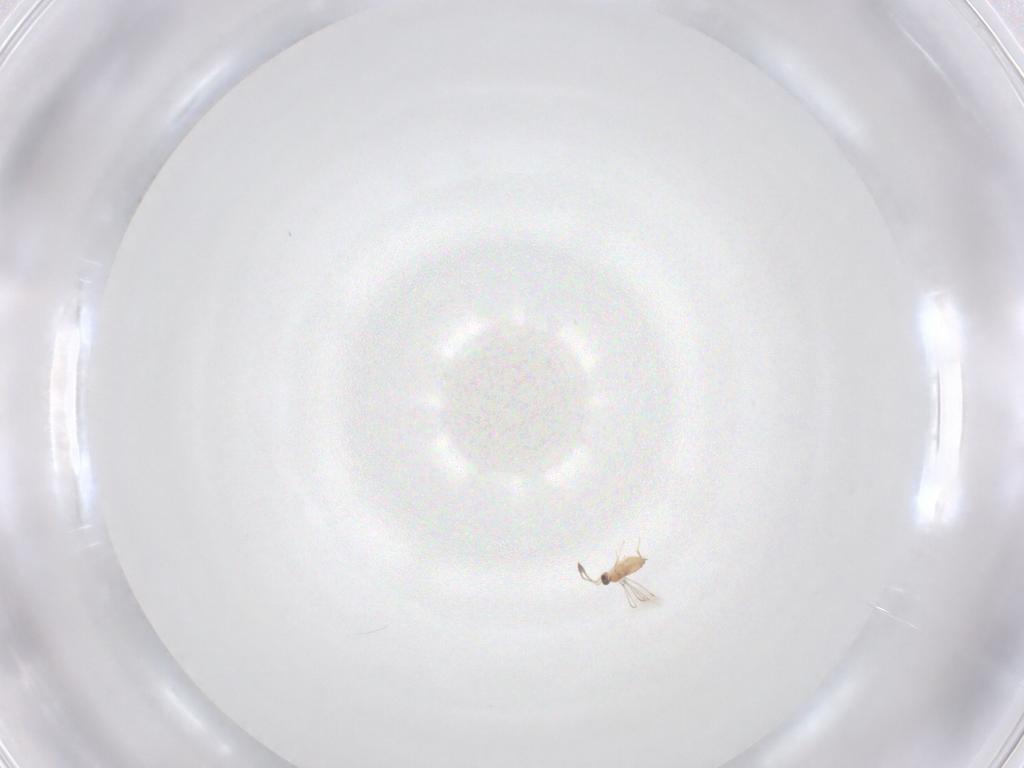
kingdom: Animalia
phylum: Arthropoda
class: Insecta
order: Hymenoptera
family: Mymaridae
